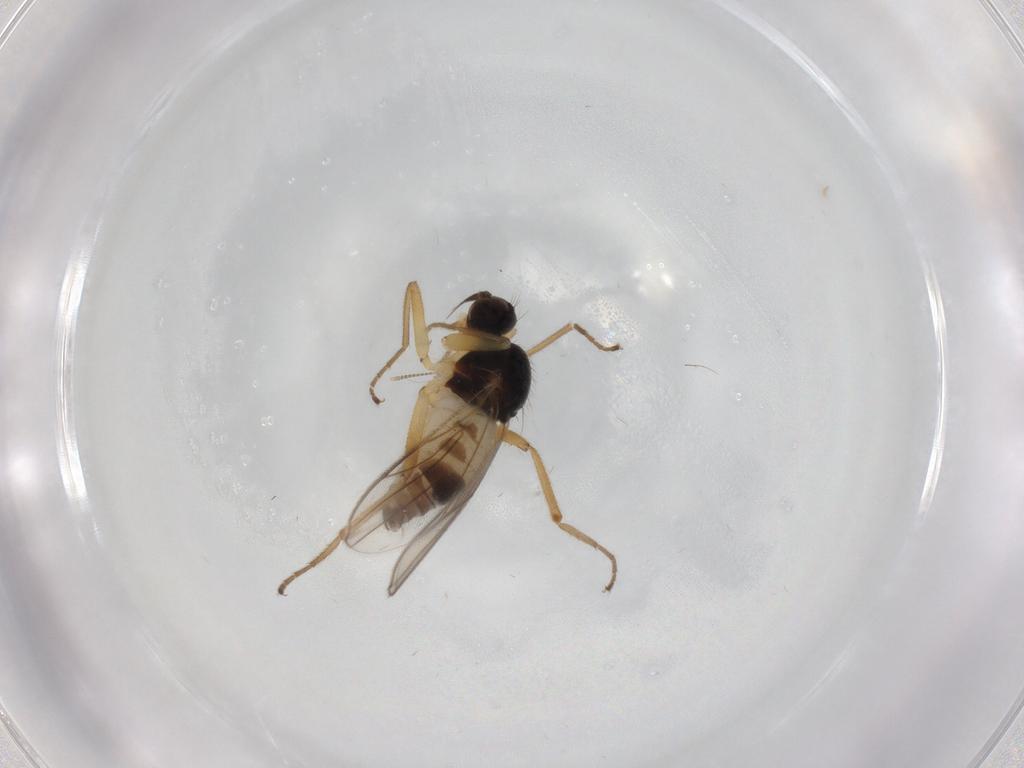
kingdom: Animalia
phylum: Arthropoda
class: Insecta
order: Diptera
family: Hybotidae
